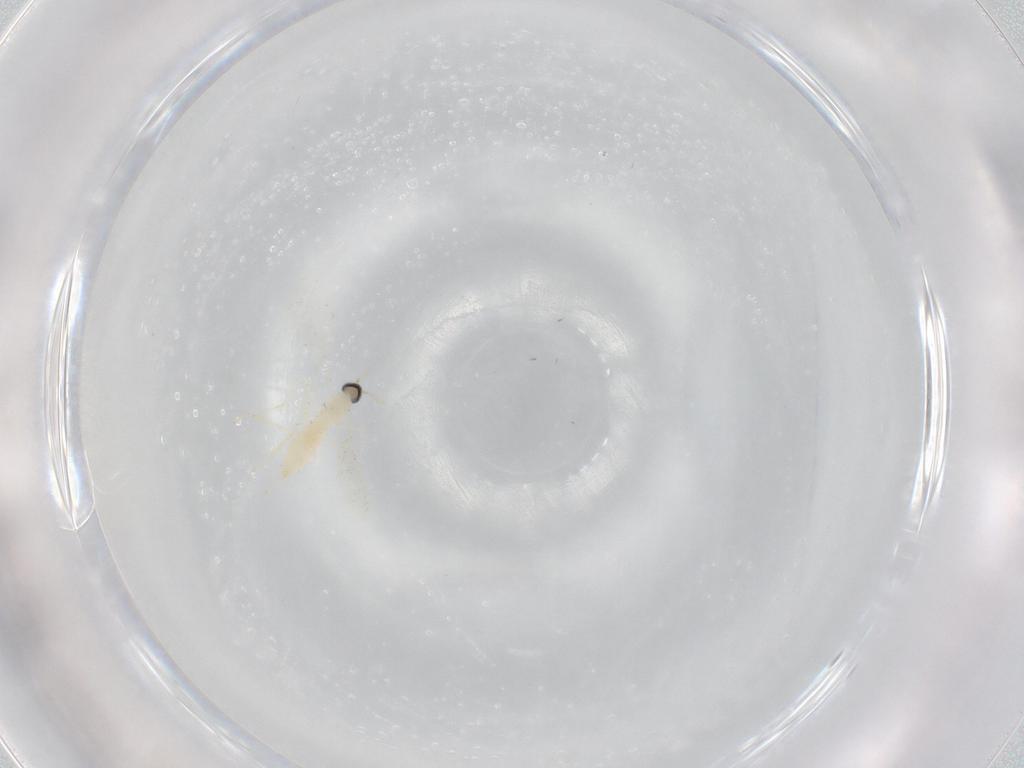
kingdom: Animalia
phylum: Arthropoda
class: Insecta
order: Diptera
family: Cecidomyiidae
